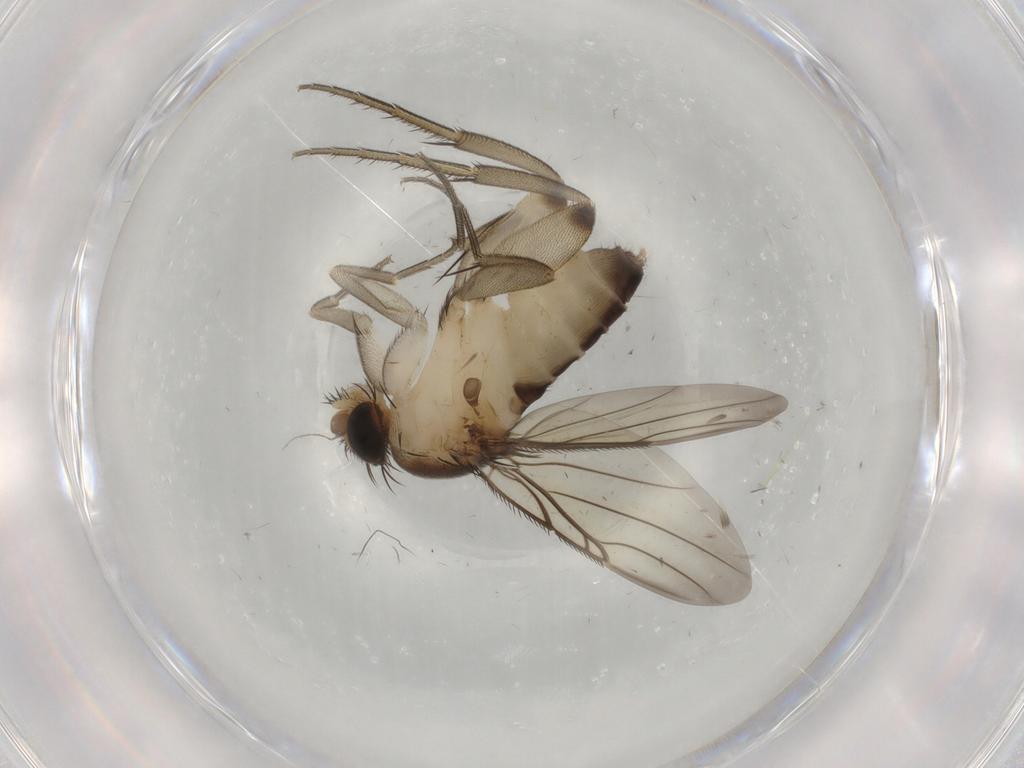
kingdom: Animalia
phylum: Arthropoda
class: Insecta
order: Diptera
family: Phoridae
